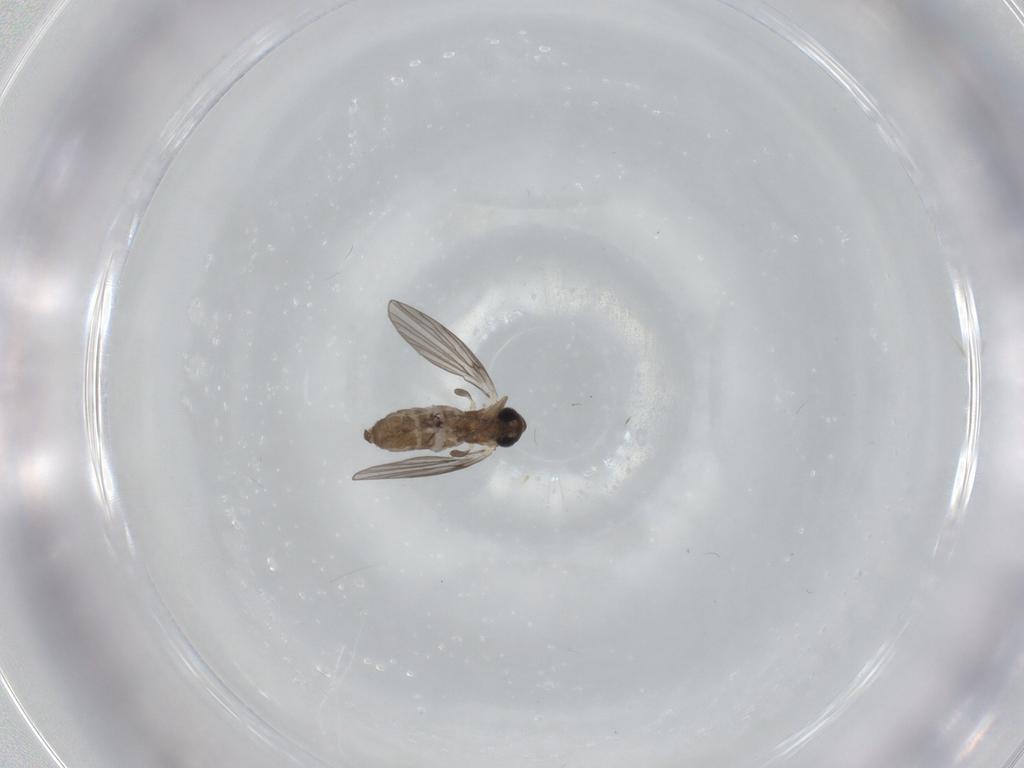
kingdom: Animalia
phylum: Arthropoda
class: Insecta
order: Diptera
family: Psychodidae
